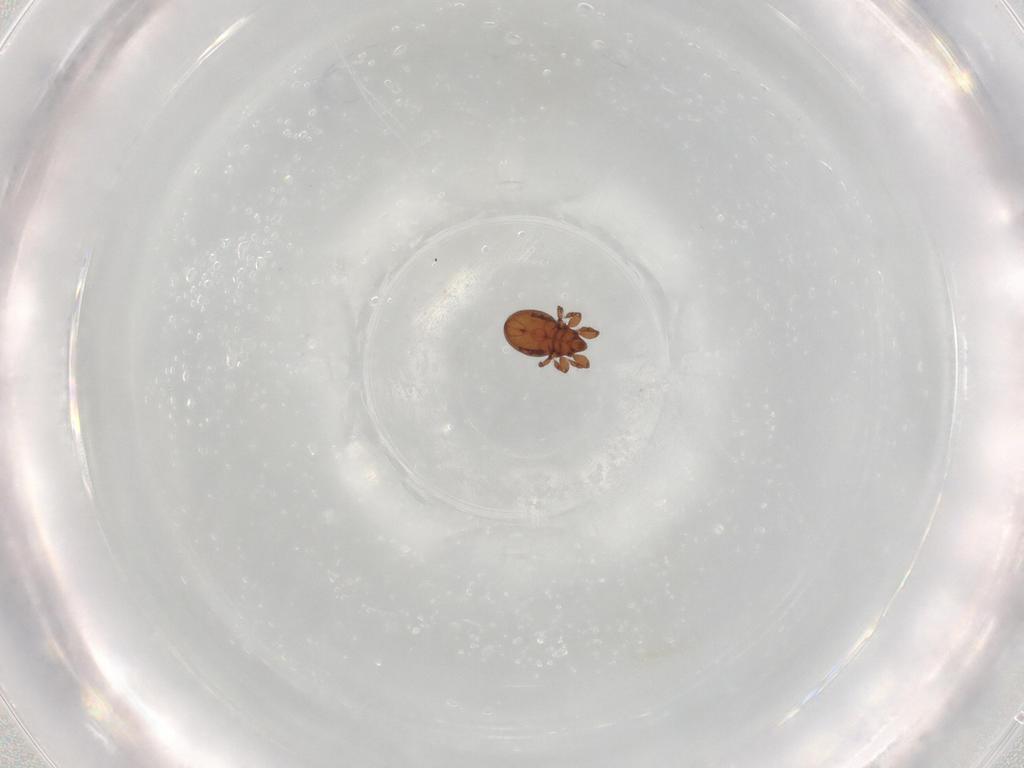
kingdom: Animalia
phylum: Arthropoda
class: Arachnida
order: Sarcoptiformes
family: Eremaeidae
